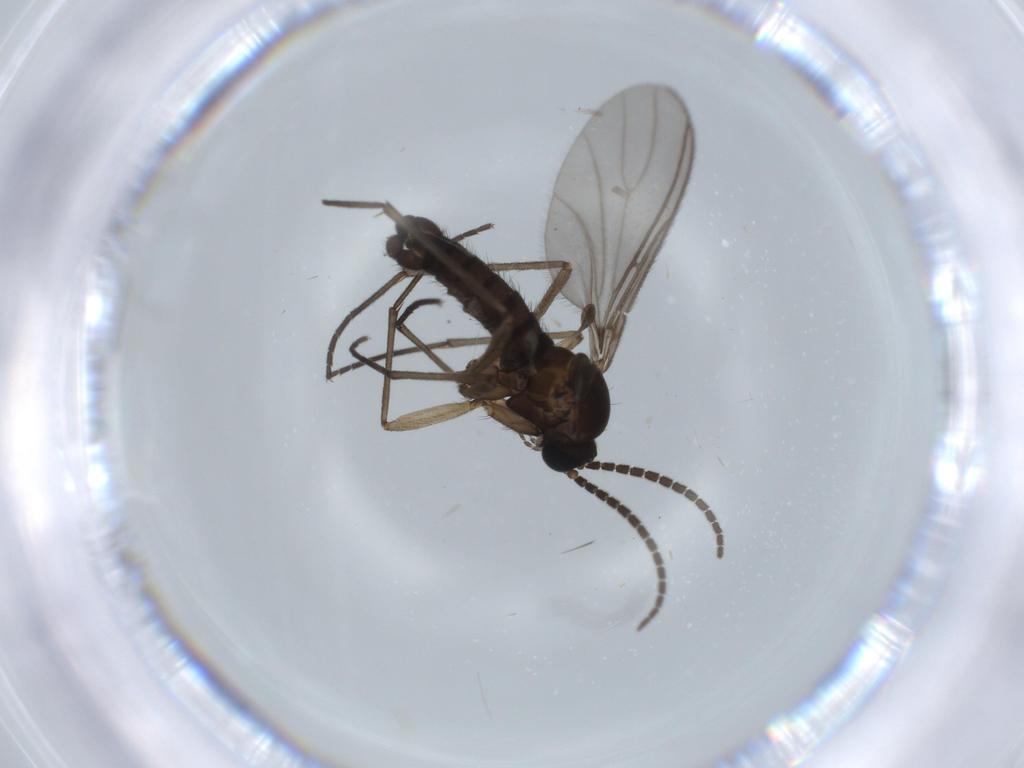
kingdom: Animalia
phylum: Arthropoda
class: Insecta
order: Diptera
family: Sciaridae
